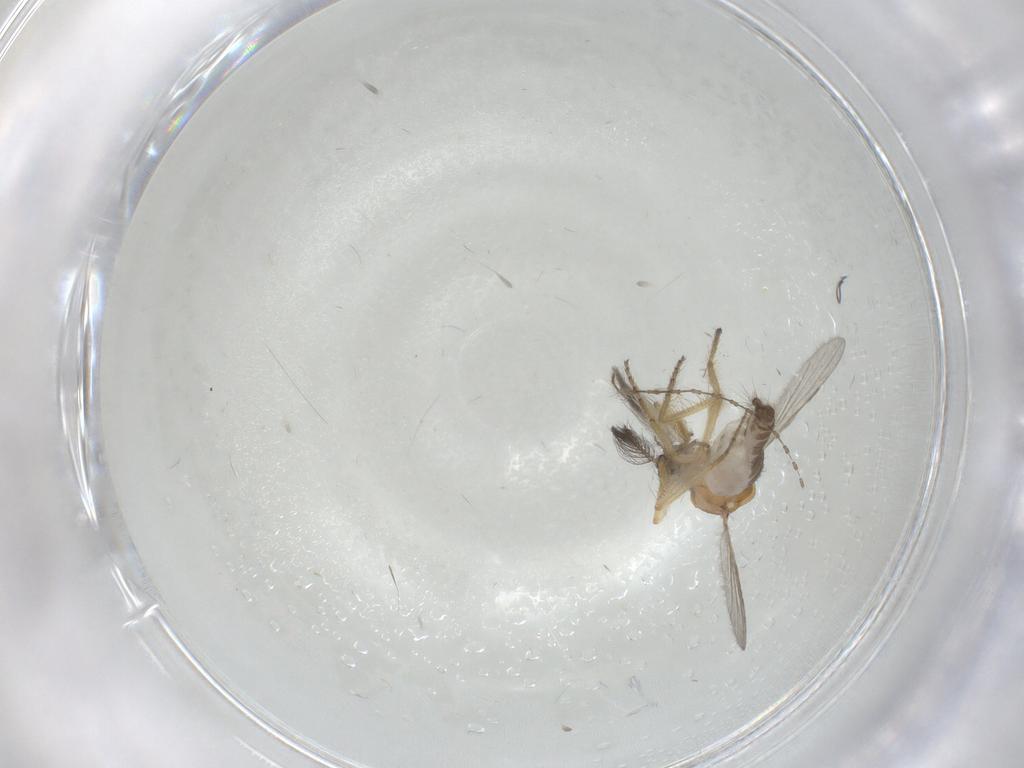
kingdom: Animalia
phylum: Arthropoda
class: Insecta
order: Diptera
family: Ceratopogonidae
